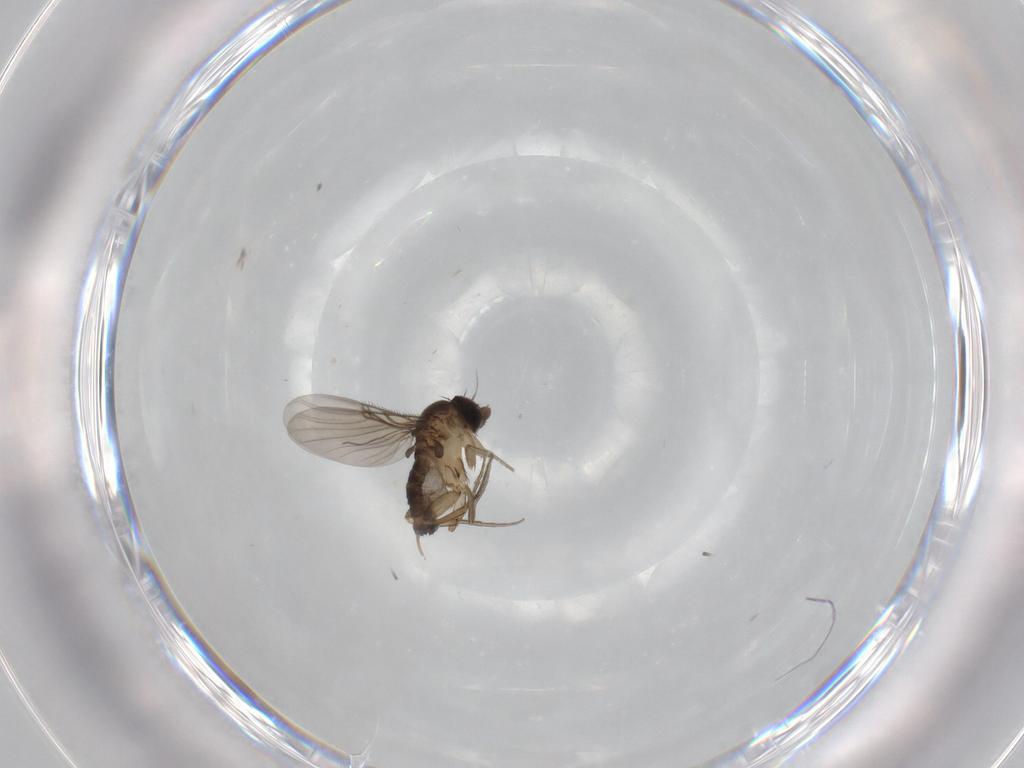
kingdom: Animalia
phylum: Arthropoda
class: Insecta
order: Diptera
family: Phoridae
